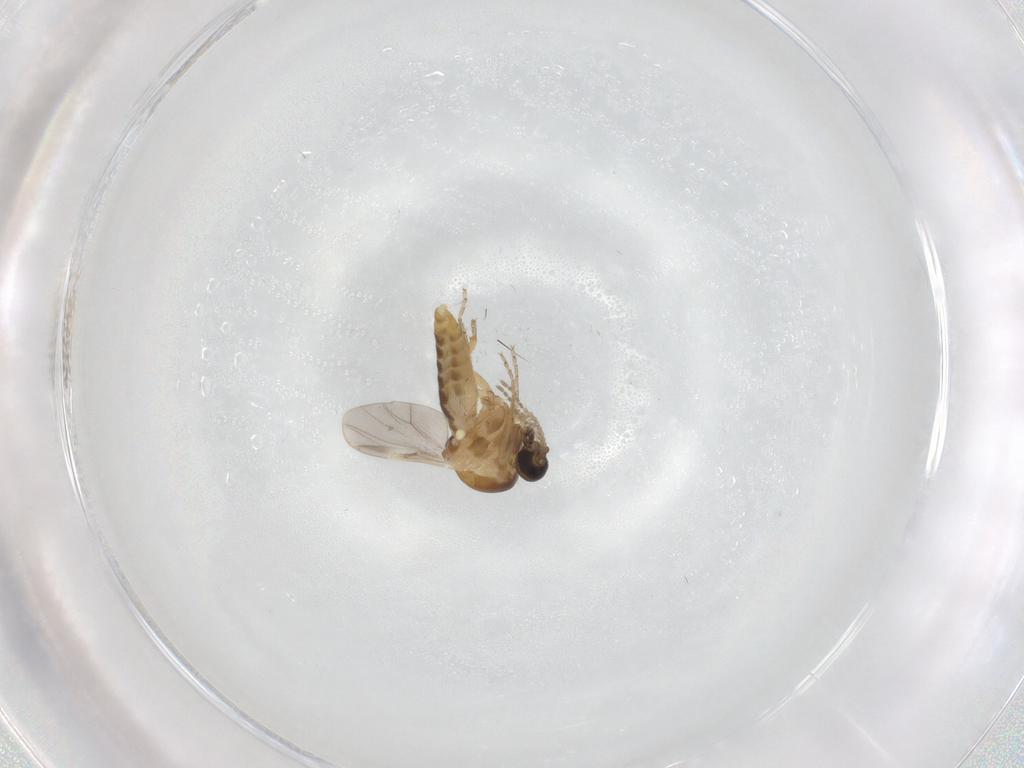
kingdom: Animalia
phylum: Arthropoda
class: Insecta
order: Diptera
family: Ceratopogonidae
